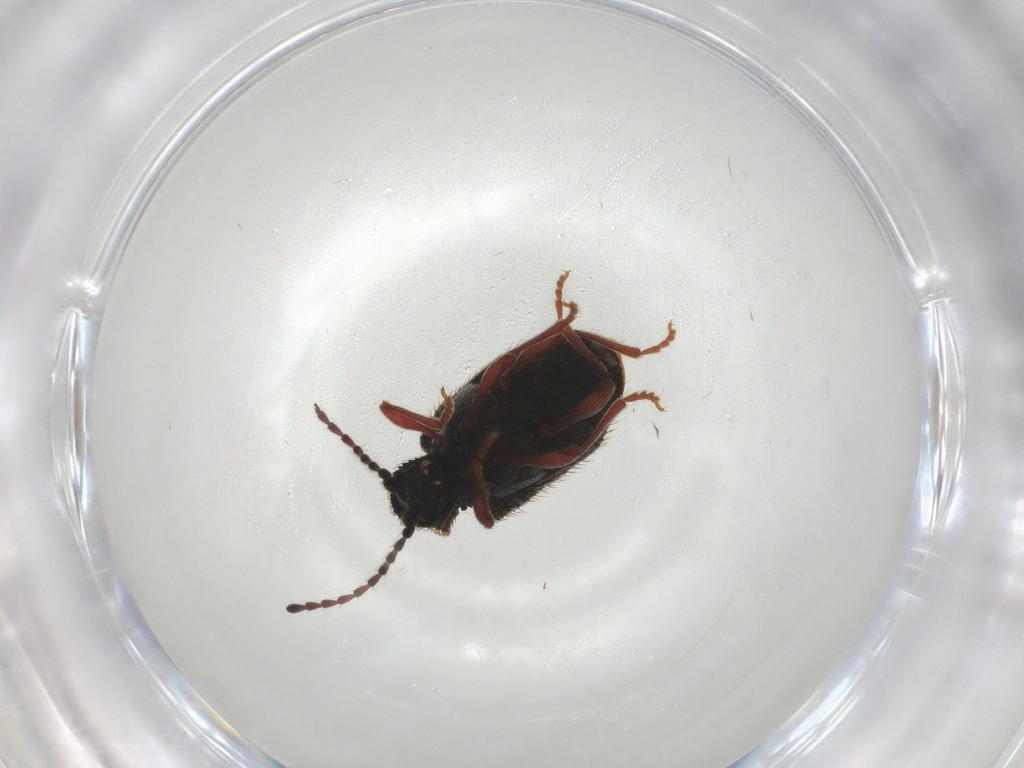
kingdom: Animalia
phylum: Arthropoda
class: Insecta
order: Coleoptera
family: Ptinidae
